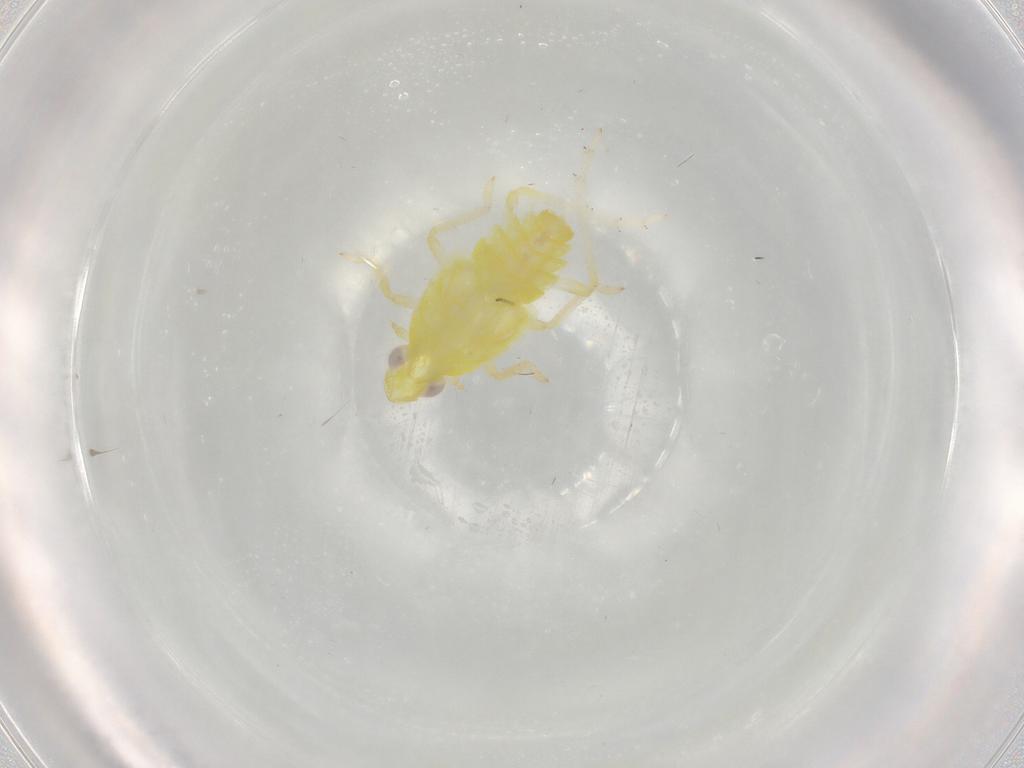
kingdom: Animalia
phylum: Arthropoda
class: Insecta
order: Hemiptera
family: Fulgoroidea_incertae_sedis
